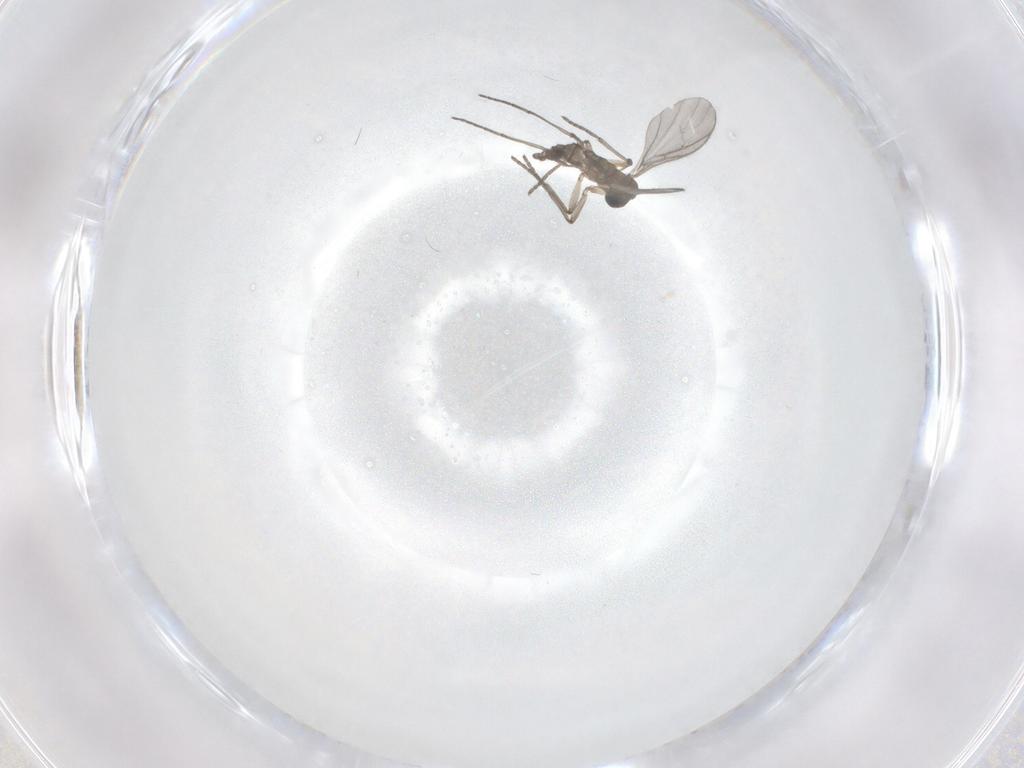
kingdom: Animalia
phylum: Arthropoda
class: Insecta
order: Diptera
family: Sciaridae
